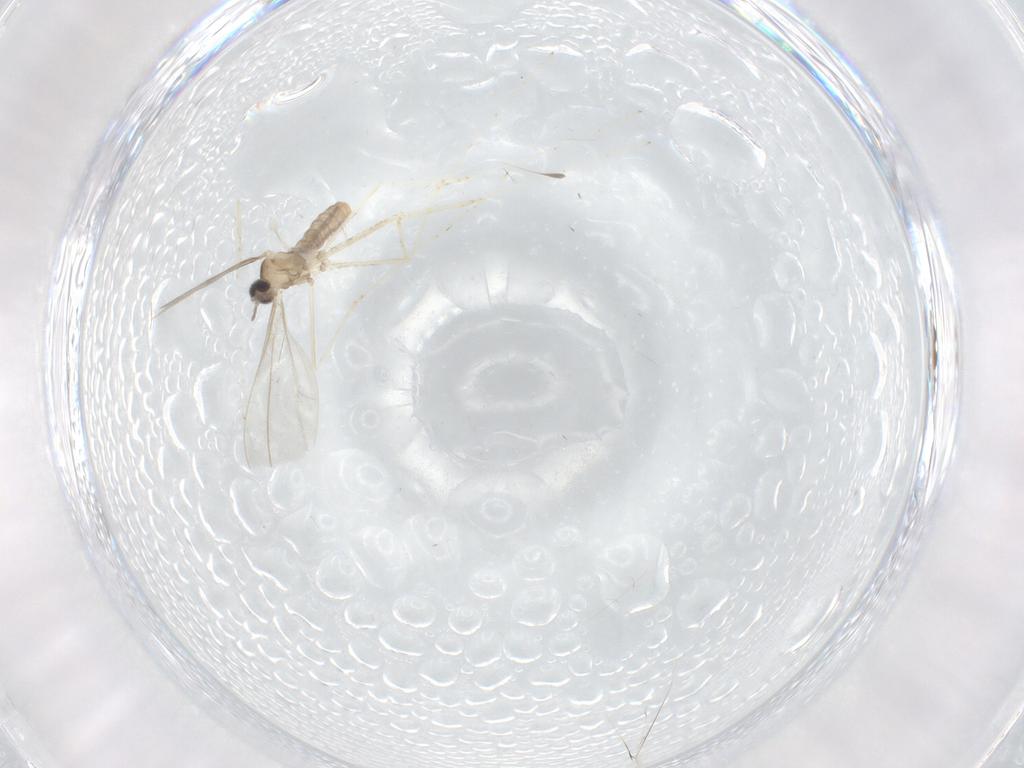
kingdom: Animalia
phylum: Arthropoda
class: Insecta
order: Diptera
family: Cecidomyiidae
